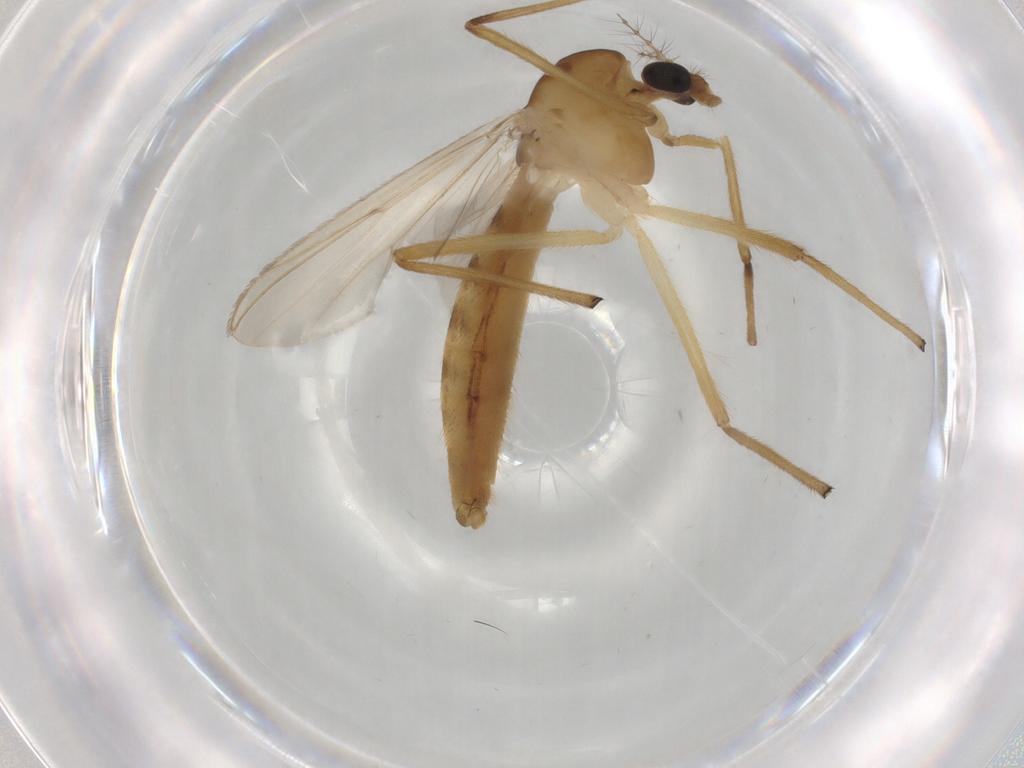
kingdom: Animalia
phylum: Arthropoda
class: Insecta
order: Diptera
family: Chironomidae
